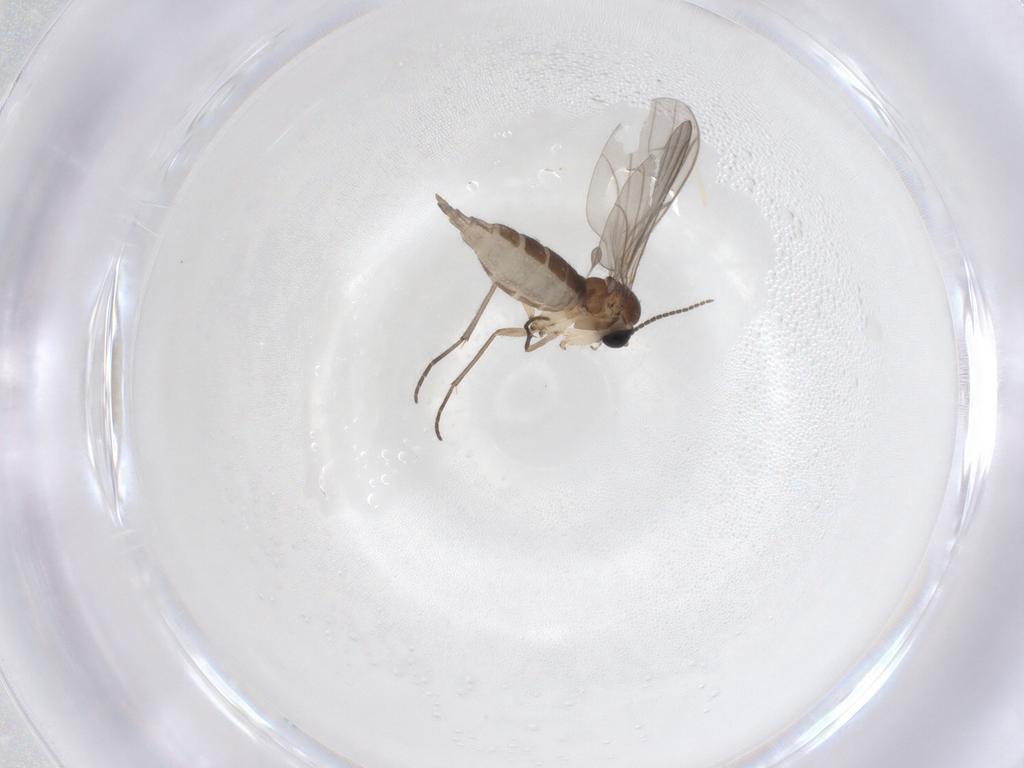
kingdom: Animalia
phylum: Arthropoda
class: Insecta
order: Diptera
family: Sciaridae
